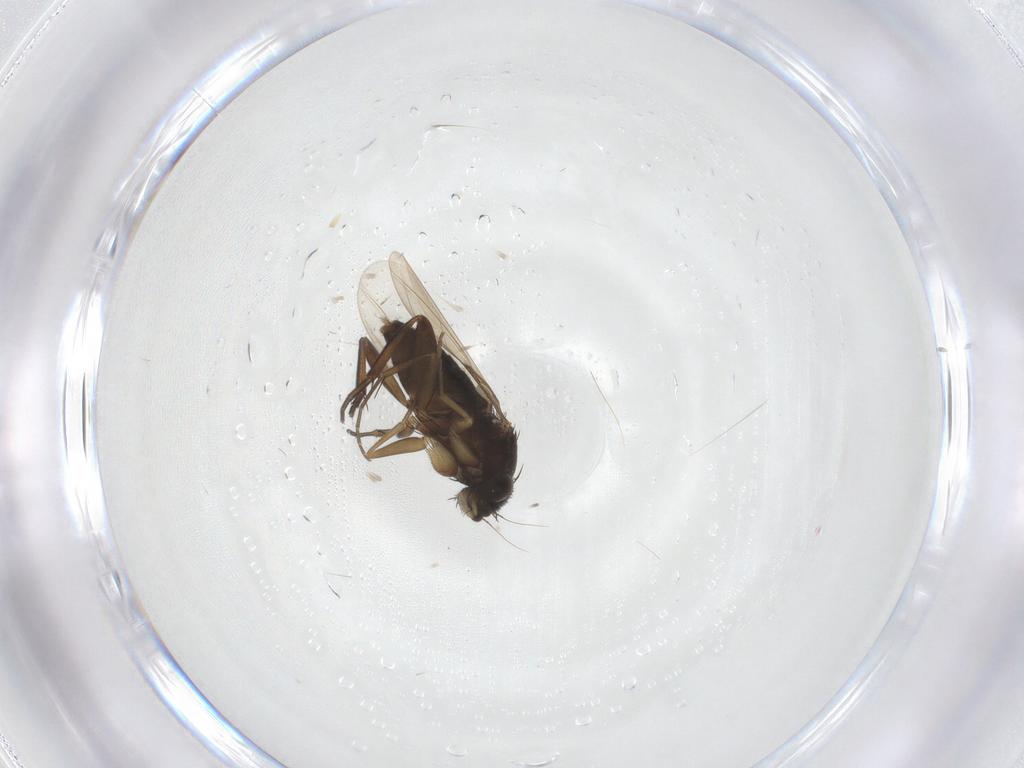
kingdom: Animalia
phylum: Arthropoda
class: Insecta
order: Diptera
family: Phoridae
